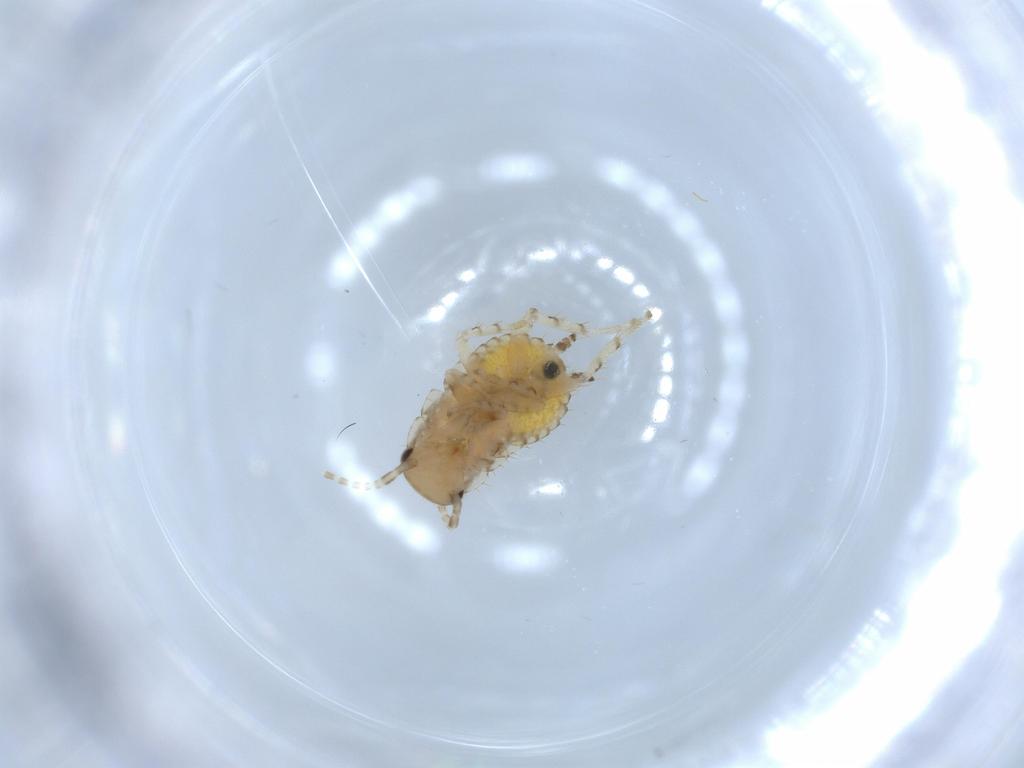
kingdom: Animalia
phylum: Arthropoda
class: Insecta
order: Blattodea
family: Ectobiidae
